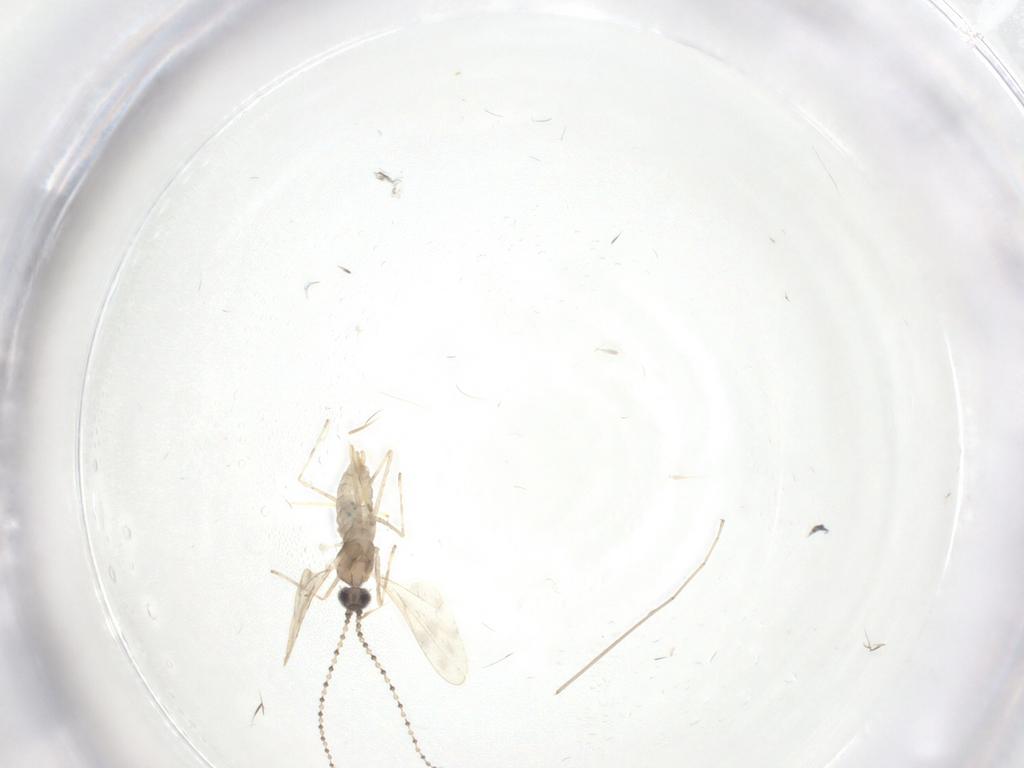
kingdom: Animalia
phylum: Arthropoda
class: Insecta
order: Diptera
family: Cecidomyiidae
